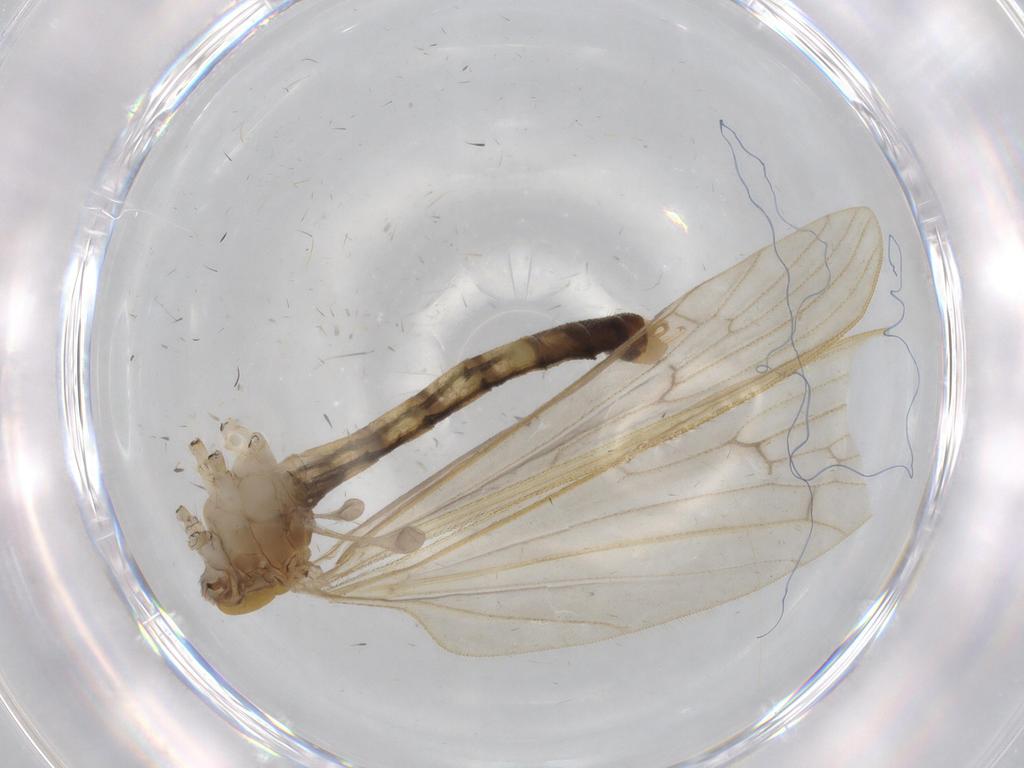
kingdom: Animalia
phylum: Arthropoda
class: Insecta
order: Diptera
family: Limoniidae
